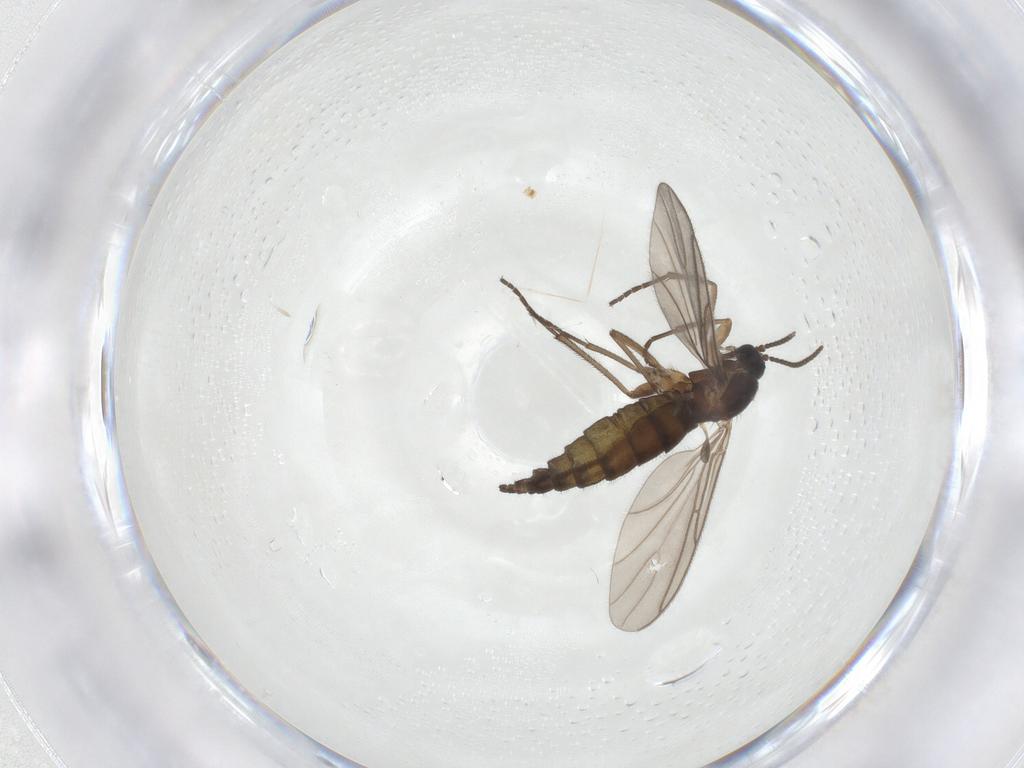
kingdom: Animalia
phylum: Arthropoda
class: Insecta
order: Diptera
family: Sciaridae
